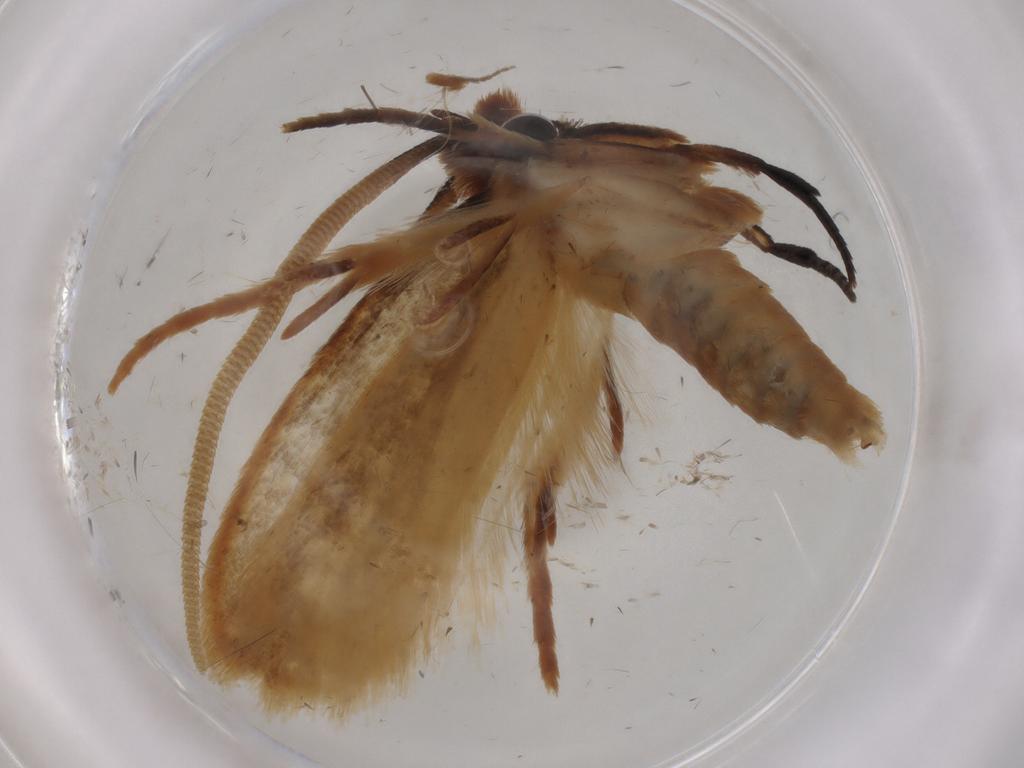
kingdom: Animalia
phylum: Arthropoda
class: Insecta
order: Lepidoptera
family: Tineidae
